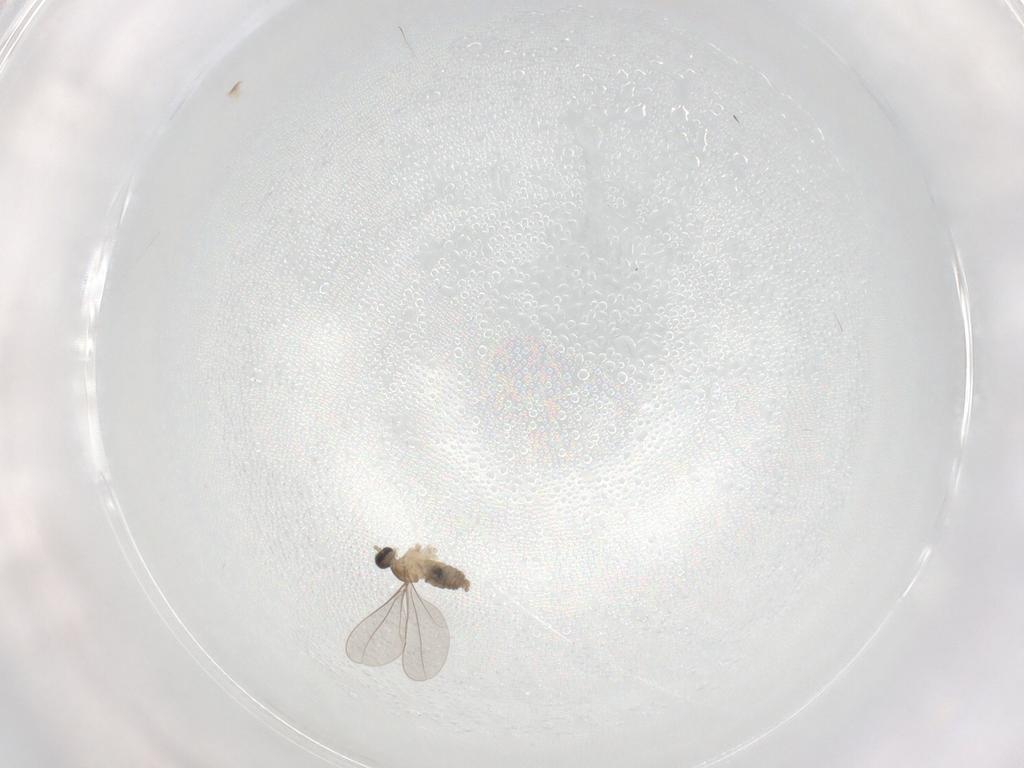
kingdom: Animalia
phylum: Arthropoda
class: Insecta
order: Diptera
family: Cecidomyiidae
